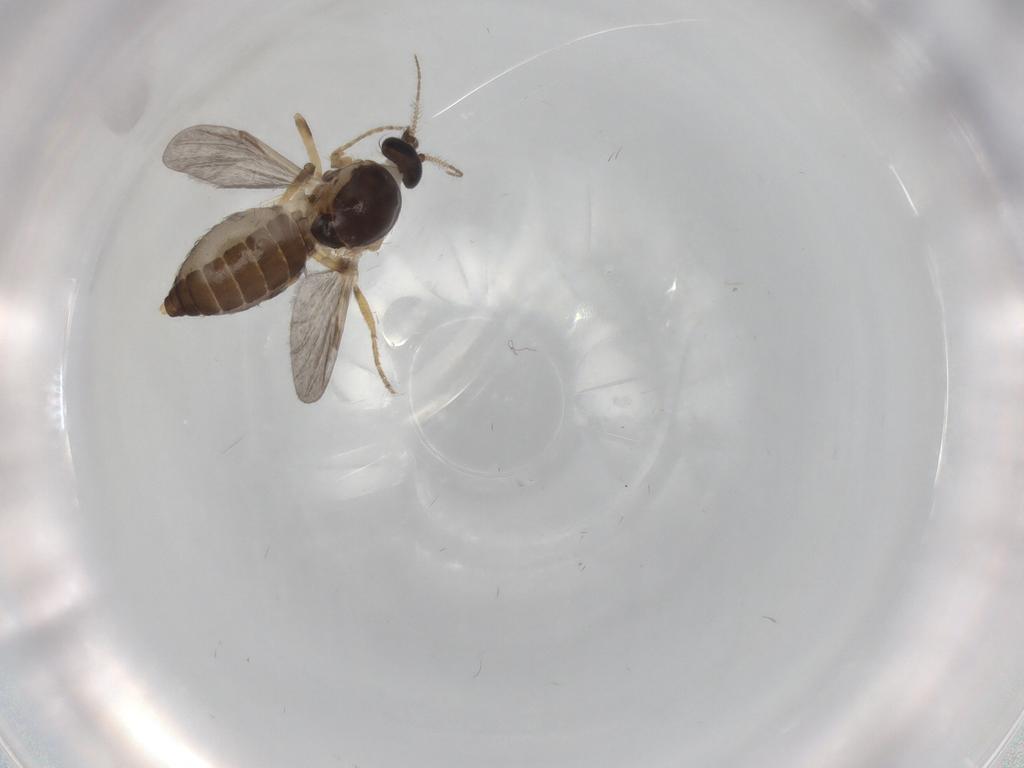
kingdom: Animalia
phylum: Arthropoda
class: Insecta
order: Diptera
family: Ceratopogonidae
